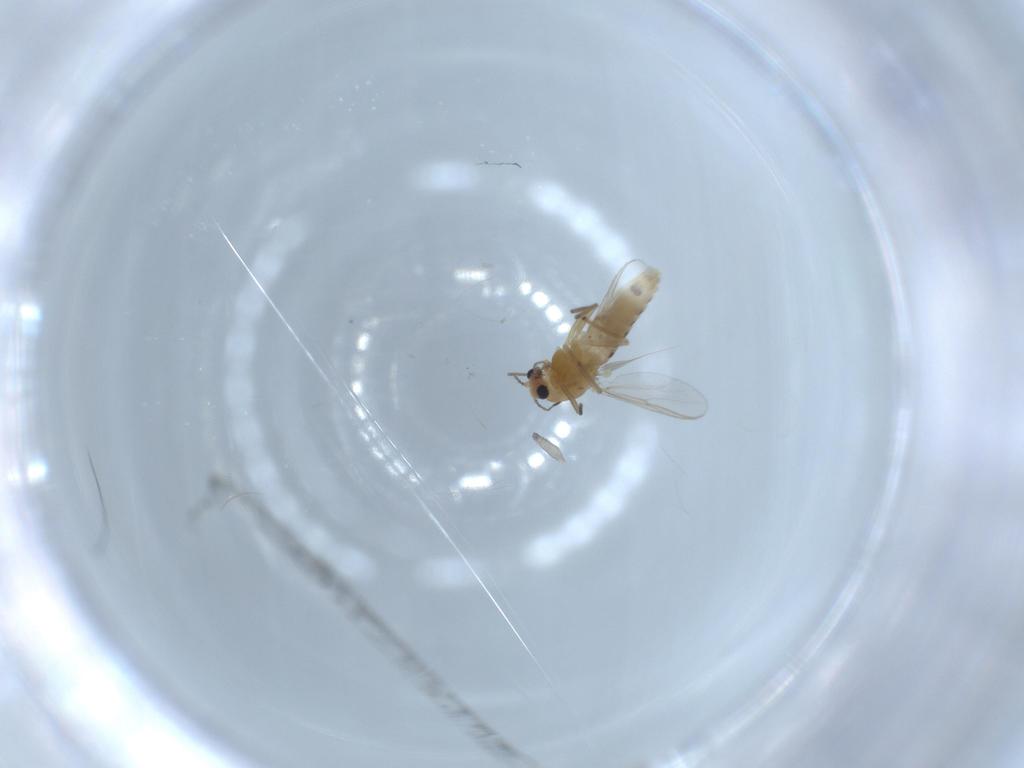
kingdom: Animalia
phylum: Arthropoda
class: Insecta
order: Diptera
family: Chironomidae
